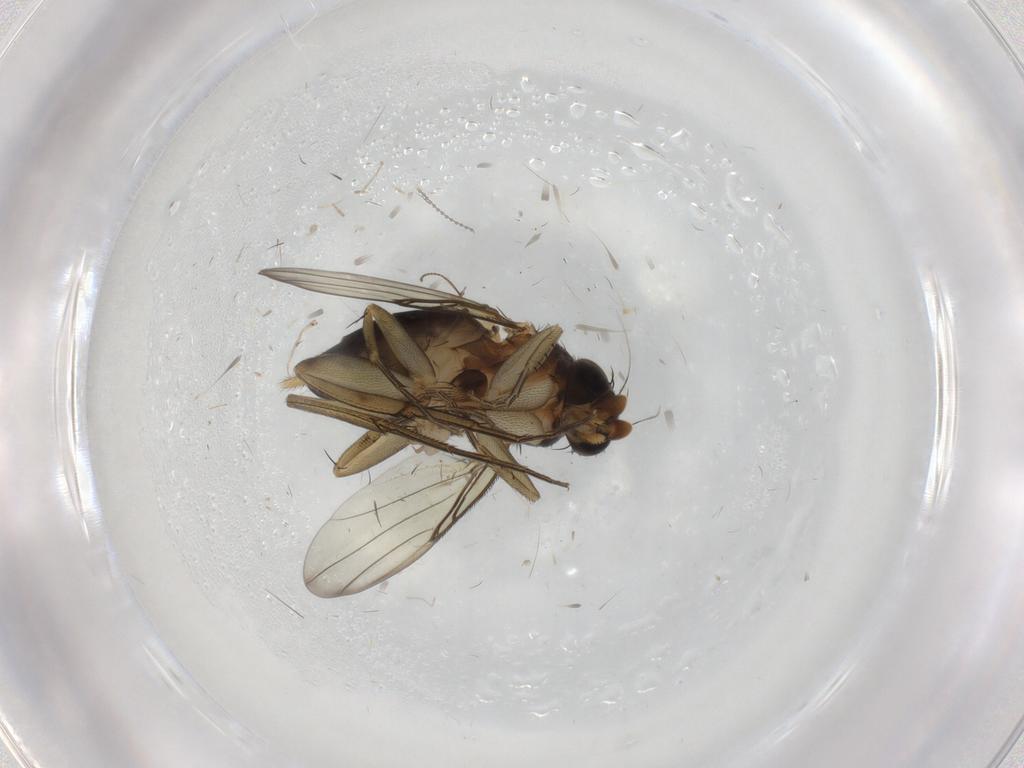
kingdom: Animalia
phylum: Arthropoda
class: Insecta
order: Diptera
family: Phoridae
